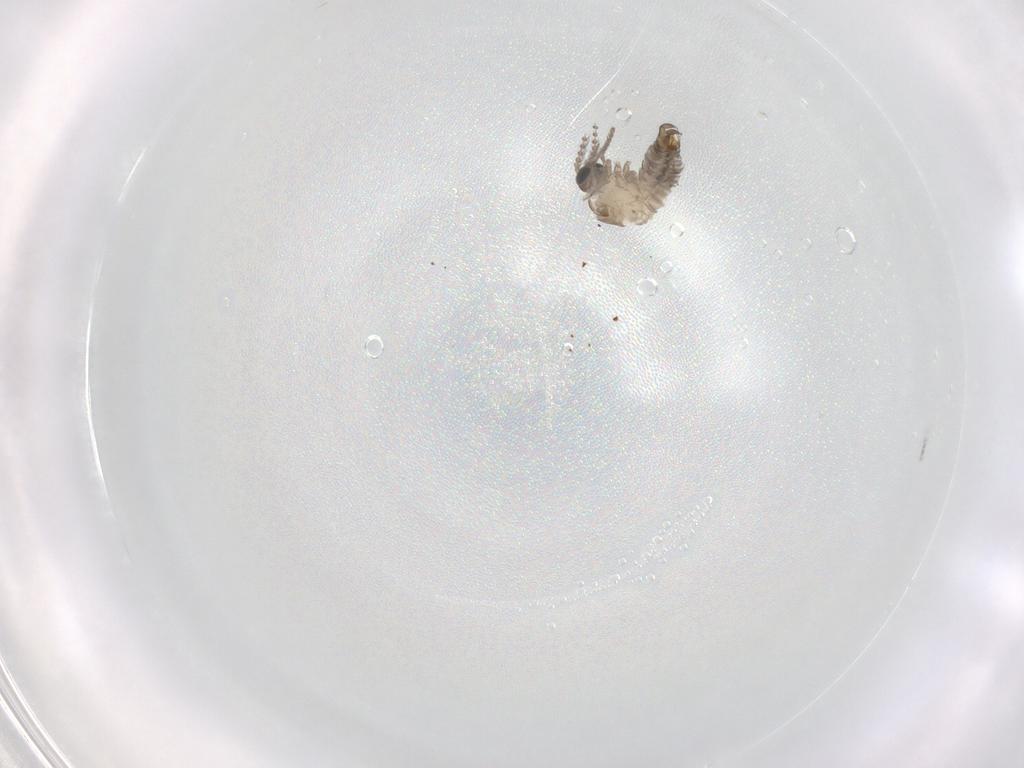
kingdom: Animalia
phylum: Arthropoda
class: Insecta
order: Diptera
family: Psychodidae
